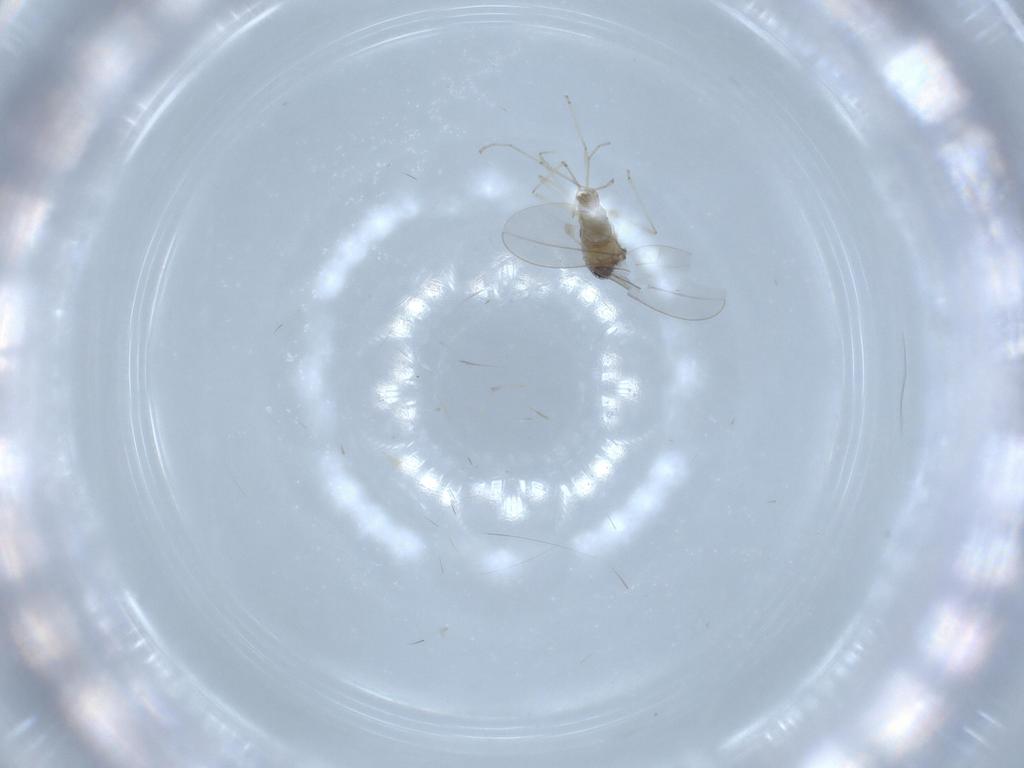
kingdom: Animalia
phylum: Arthropoda
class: Insecta
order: Diptera
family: Cecidomyiidae
